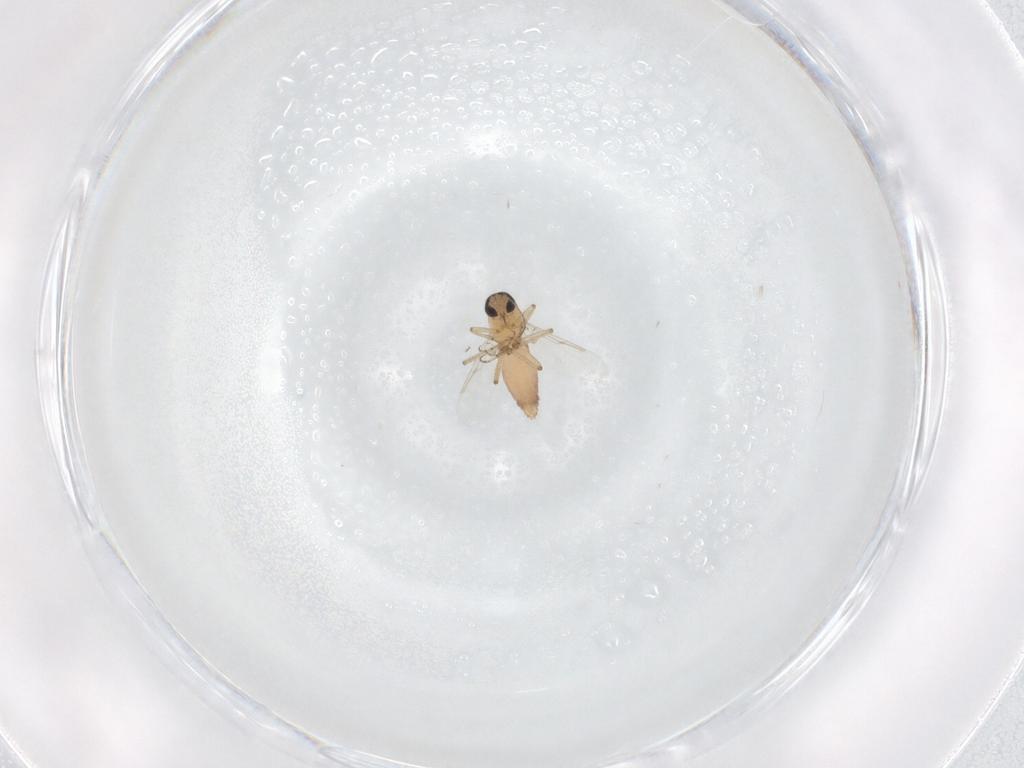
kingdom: Animalia
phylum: Arthropoda
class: Insecta
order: Diptera
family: Ceratopogonidae
